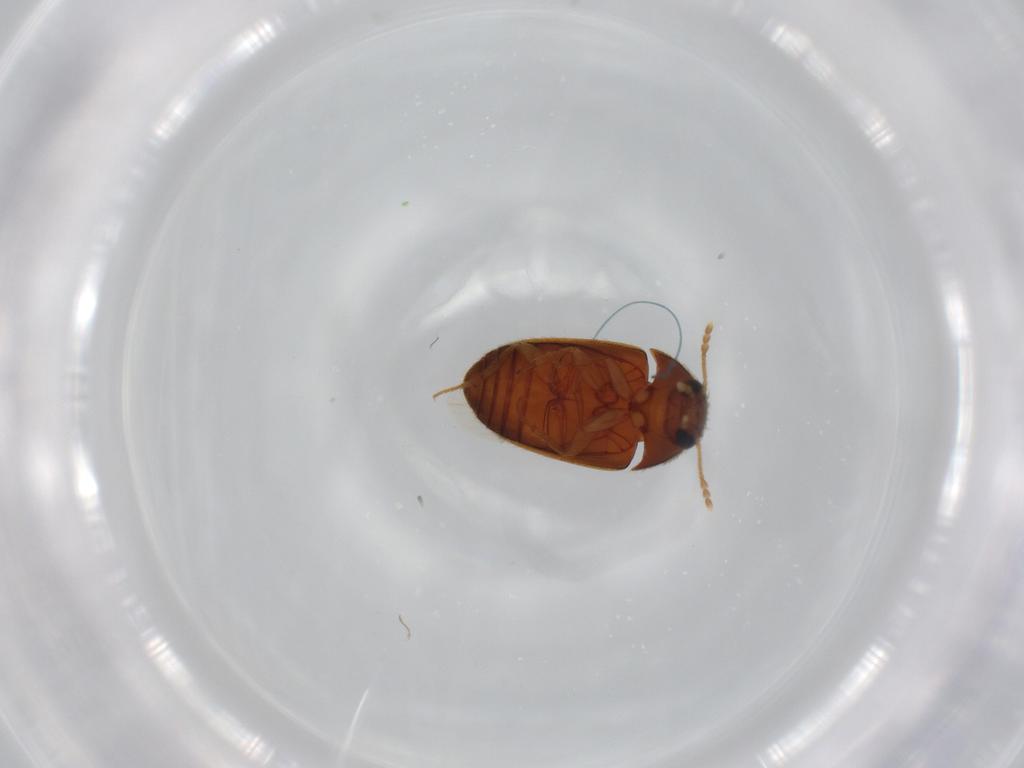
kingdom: Animalia
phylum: Arthropoda
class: Insecta
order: Coleoptera
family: Mycetophagidae
